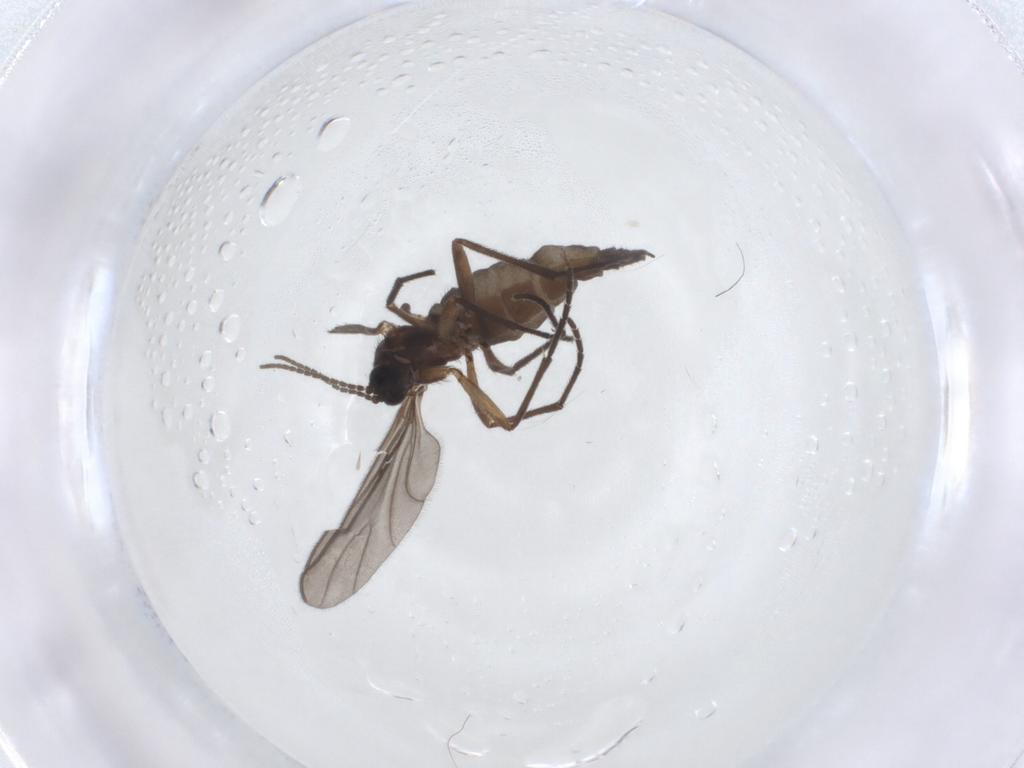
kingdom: Animalia
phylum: Arthropoda
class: Insecta
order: Diptera
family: Sciaridae
